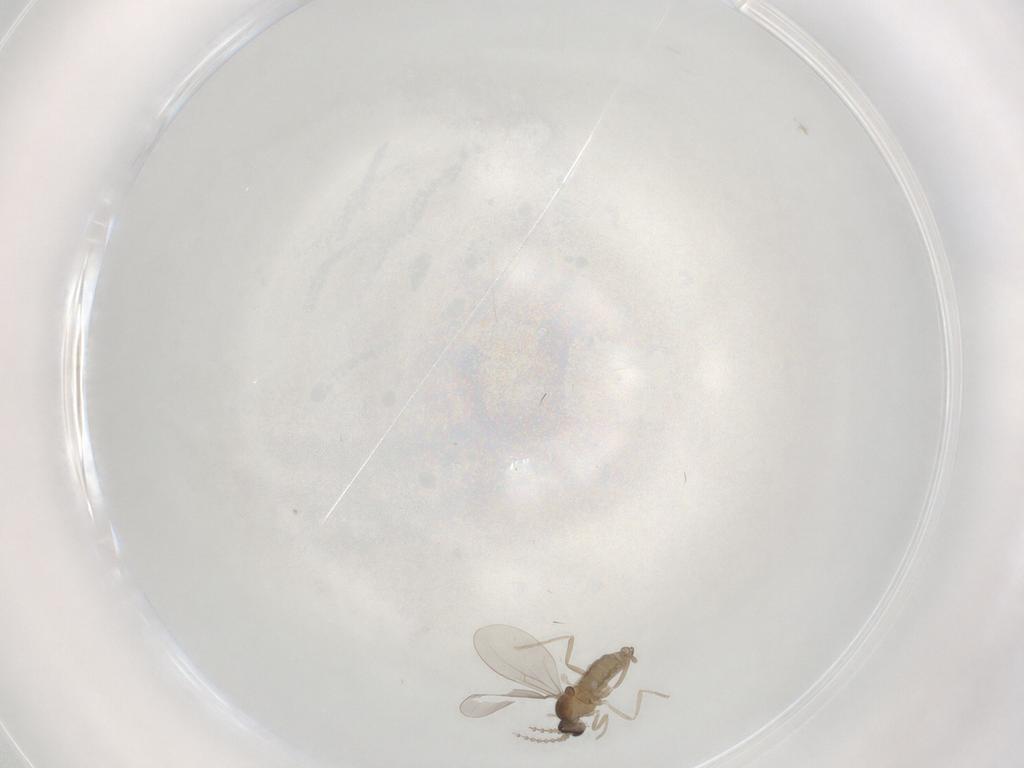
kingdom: Animalia
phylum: Arthropoda
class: Insecta
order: Diptera
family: Cecidomyiidae
